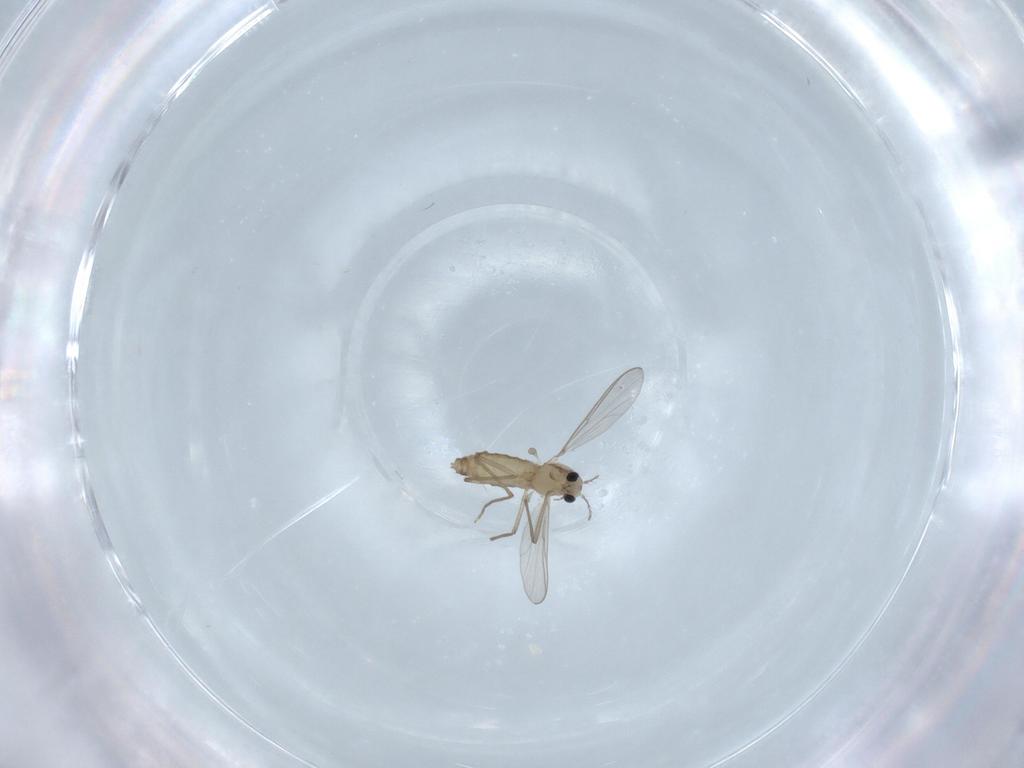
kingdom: Animalia
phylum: Arthropoda
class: Insecta
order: Diptera
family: Chironomidae
